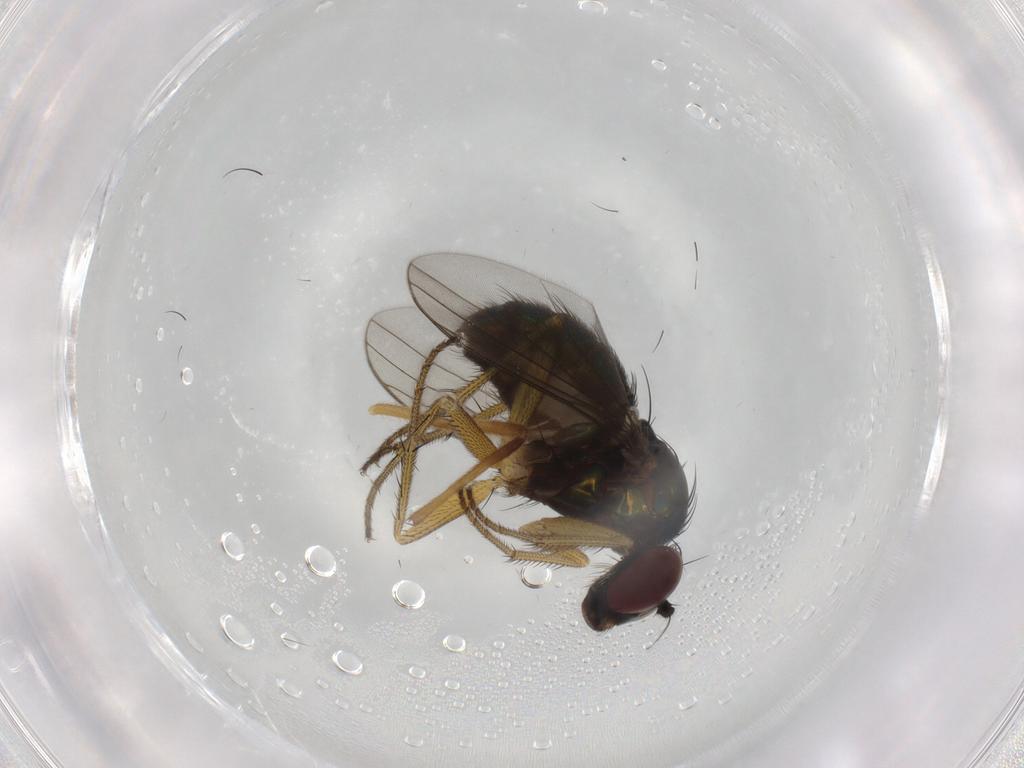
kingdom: Animalia
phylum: Arthropoda
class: Insecta
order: Diptera
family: Dolichopodidae
